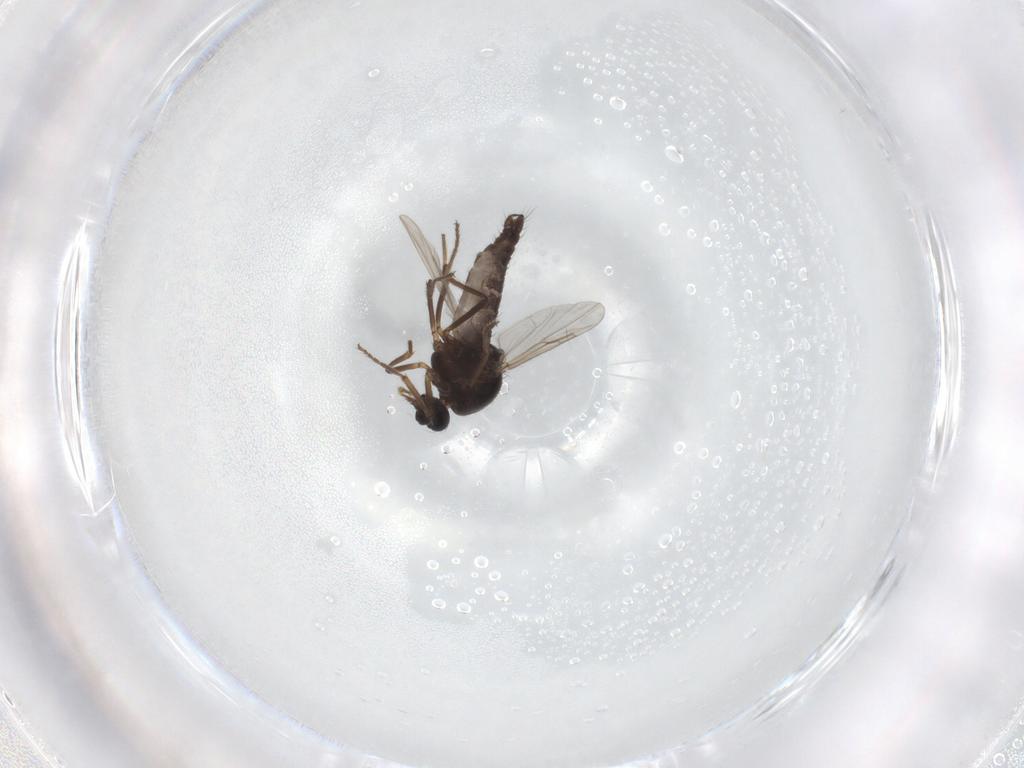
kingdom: Animalia
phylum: Arthropoda
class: Insecta
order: Diptera
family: Ceratopogonidae
